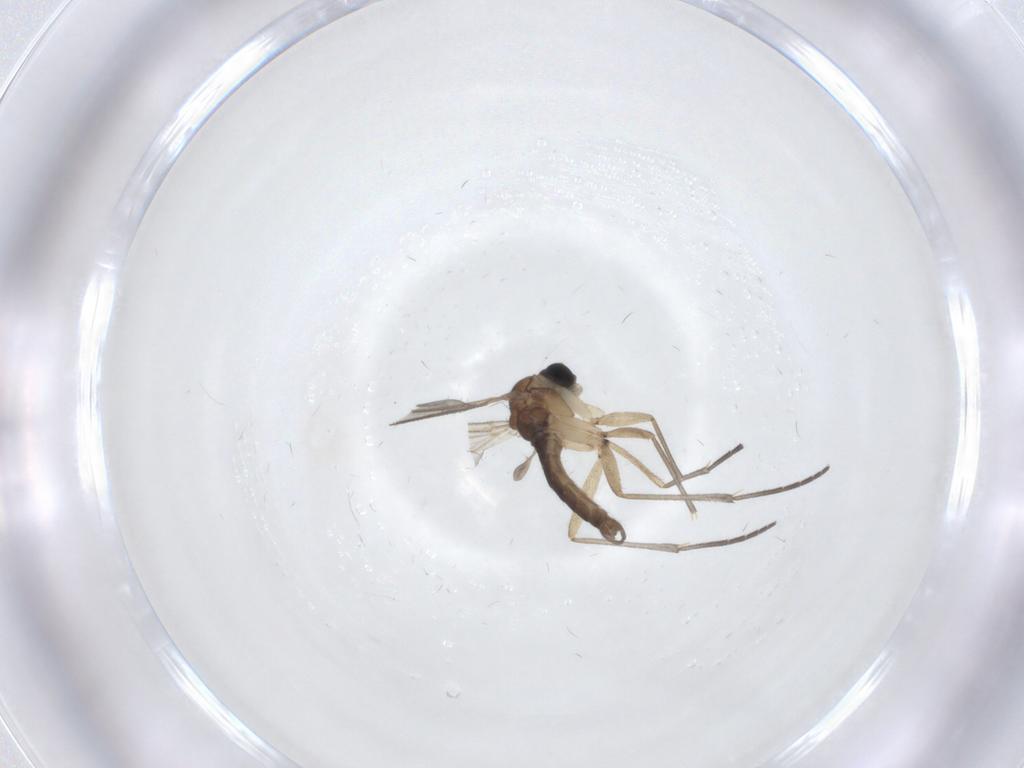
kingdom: Animalia
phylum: Arthropoda
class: Insecta
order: Diptera
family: Sciaridae
